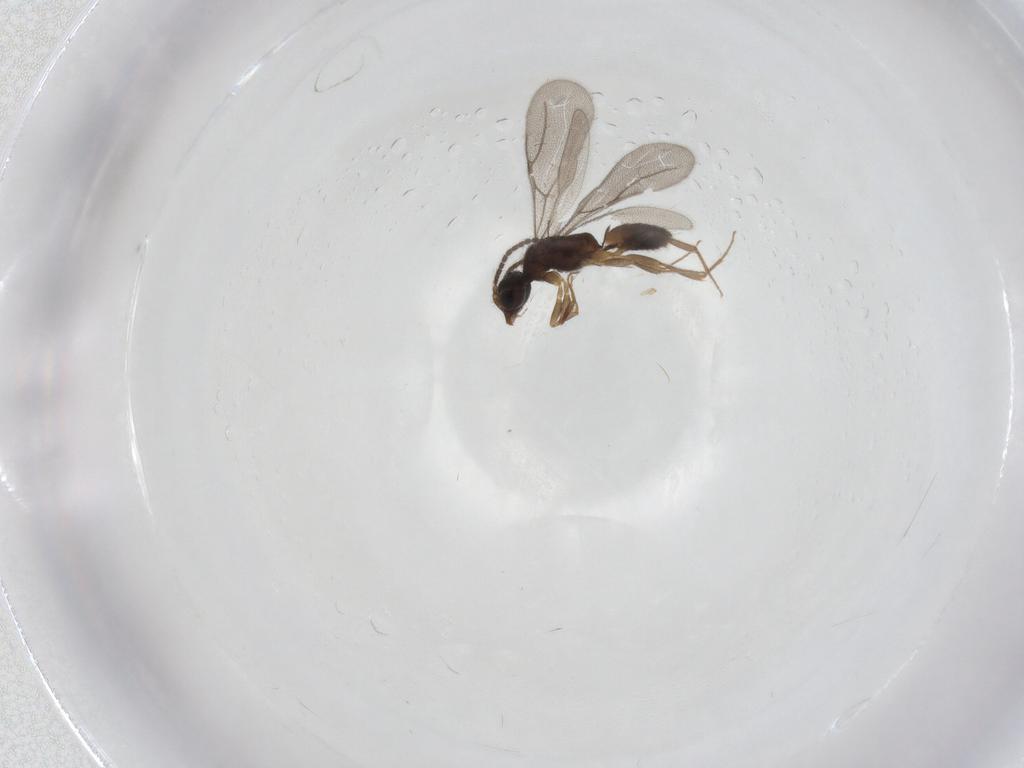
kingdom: Animalia
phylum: Arthropoda
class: Insecta
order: Hymenoptera
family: Bethylidae
